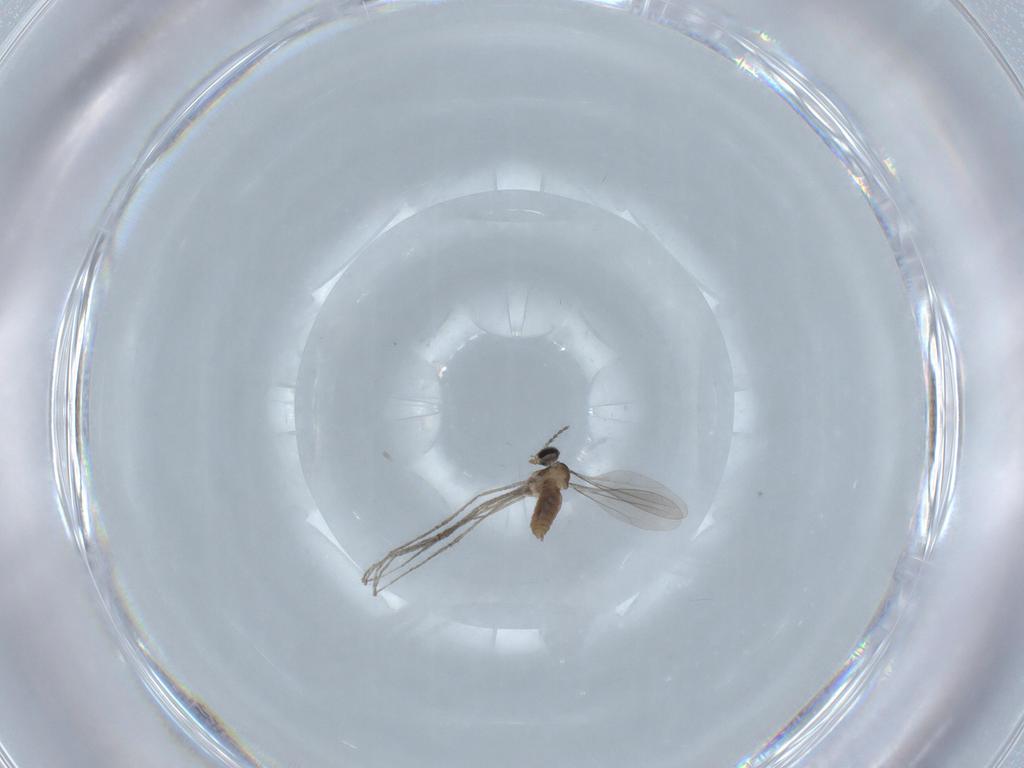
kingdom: Animalia
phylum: Arthropoda
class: Insecta
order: Diptera
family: Cecidomyiidae
